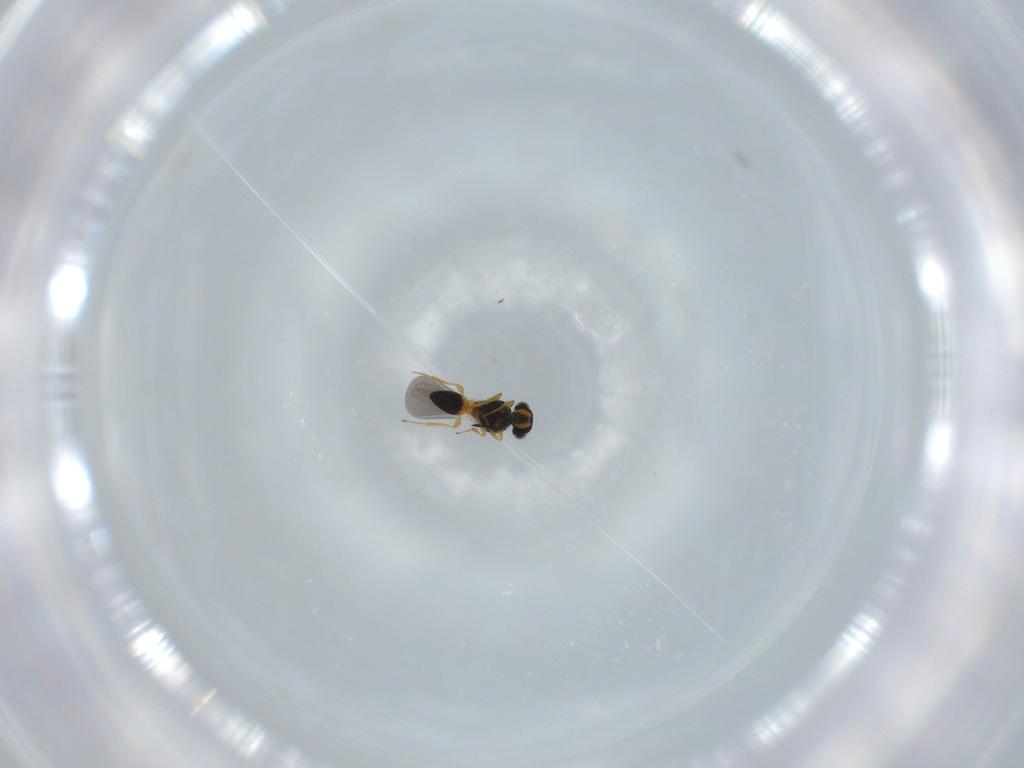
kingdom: Animalia
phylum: Arthropoda
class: Insecta
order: Hymenoptera
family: Platygastridae
